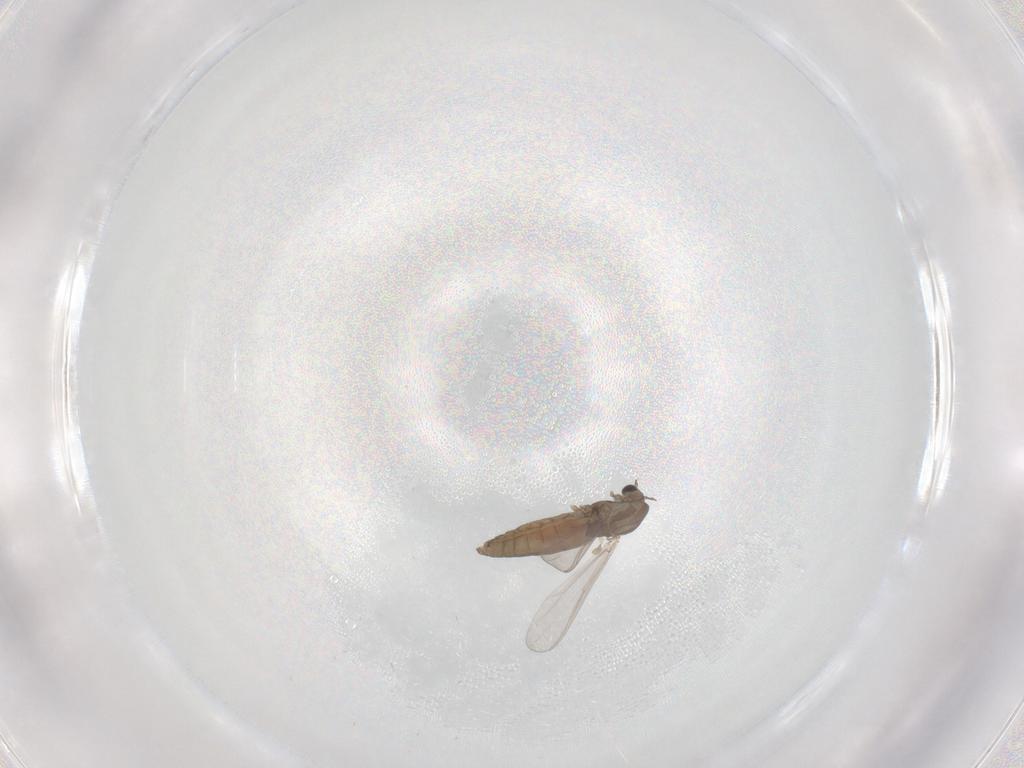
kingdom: Animalia
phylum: Arthropoda
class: Insecta
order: Diptera
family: Chironomidae
